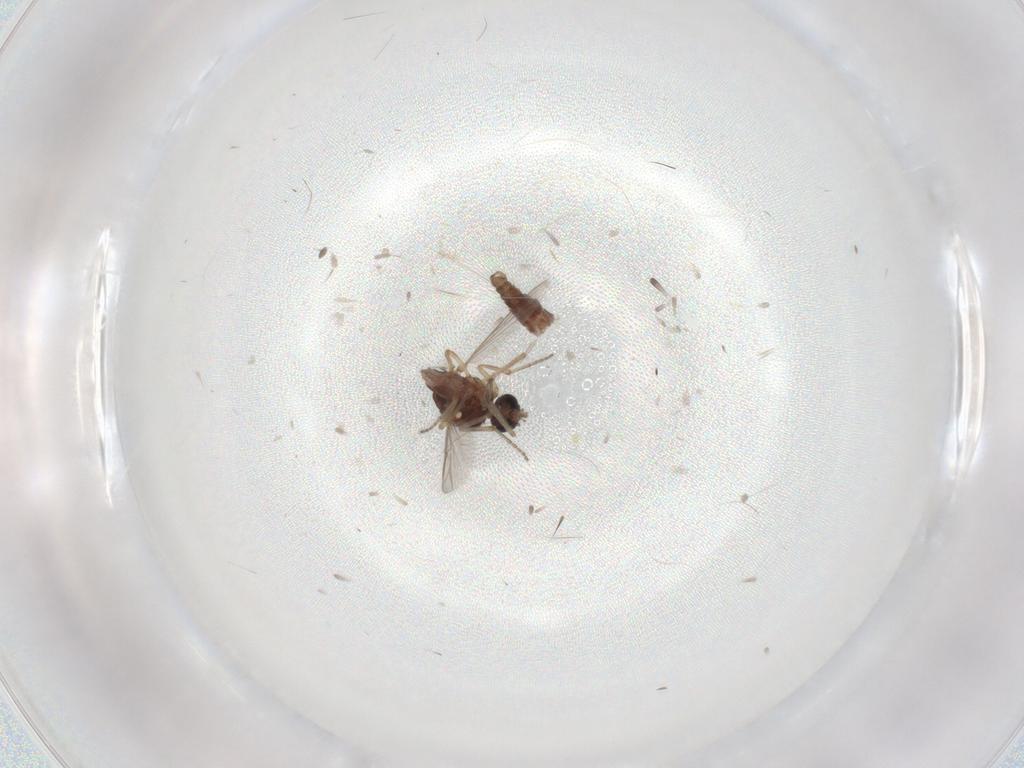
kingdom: Animalia
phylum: Arthropoda
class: Insecta
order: Diptera
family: Ceratopogonidae
